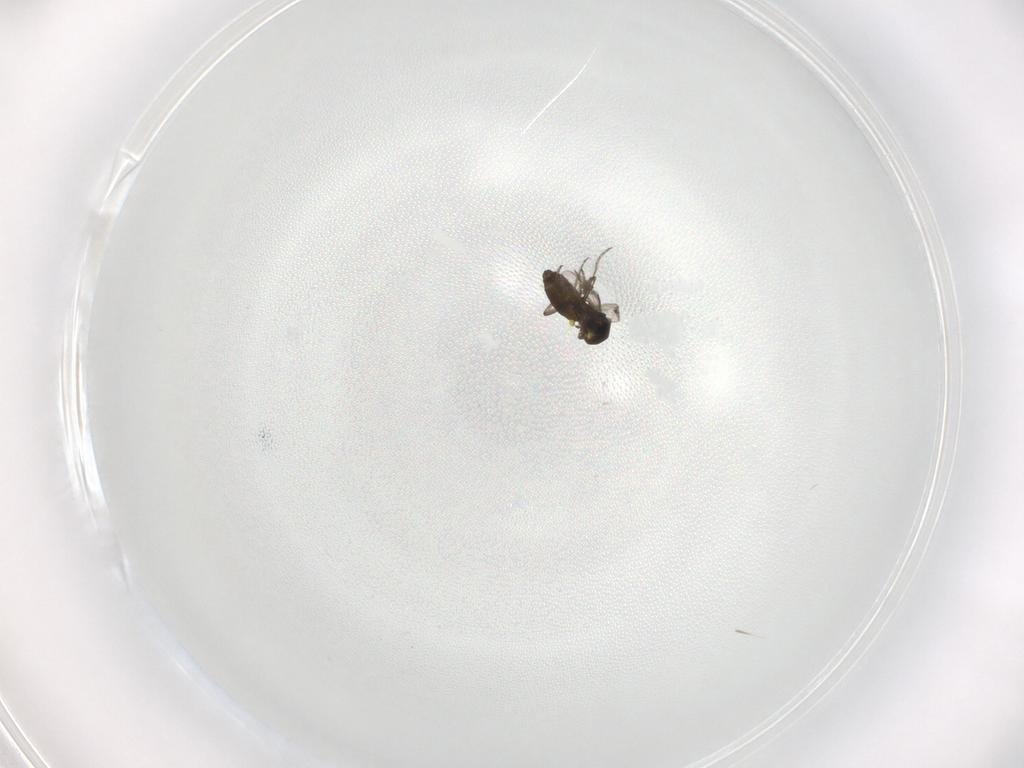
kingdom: Animalia
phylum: Arthropoda
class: Insecta
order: Diptera
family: Ceratopogonidae
